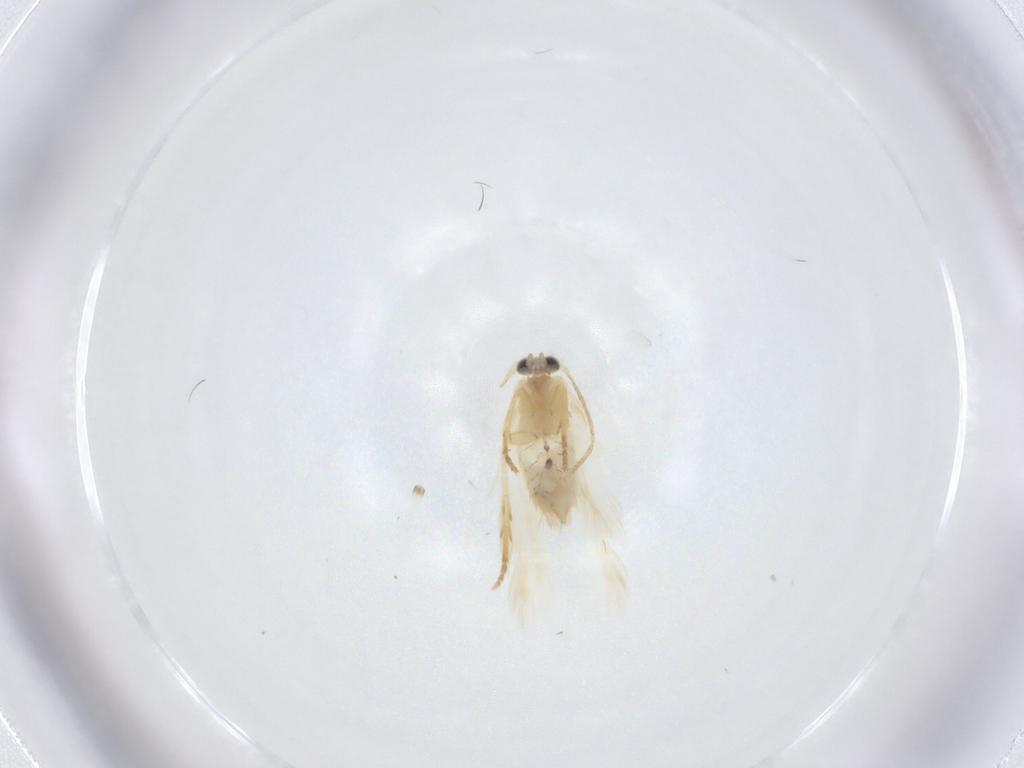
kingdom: Animalia
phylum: Arthropoda
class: Insecta
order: Lepidoptera
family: Nepticulidae
